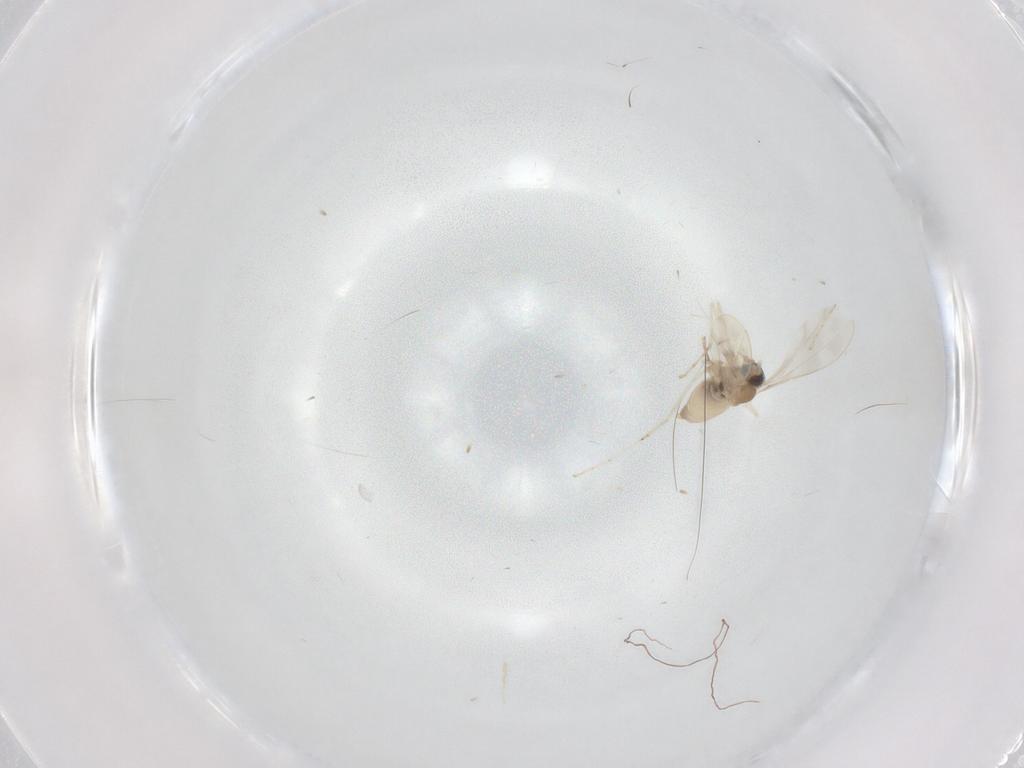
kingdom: Animalia
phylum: Arthropoda
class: Insecta
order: Diptera
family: Cecidomyiidae
